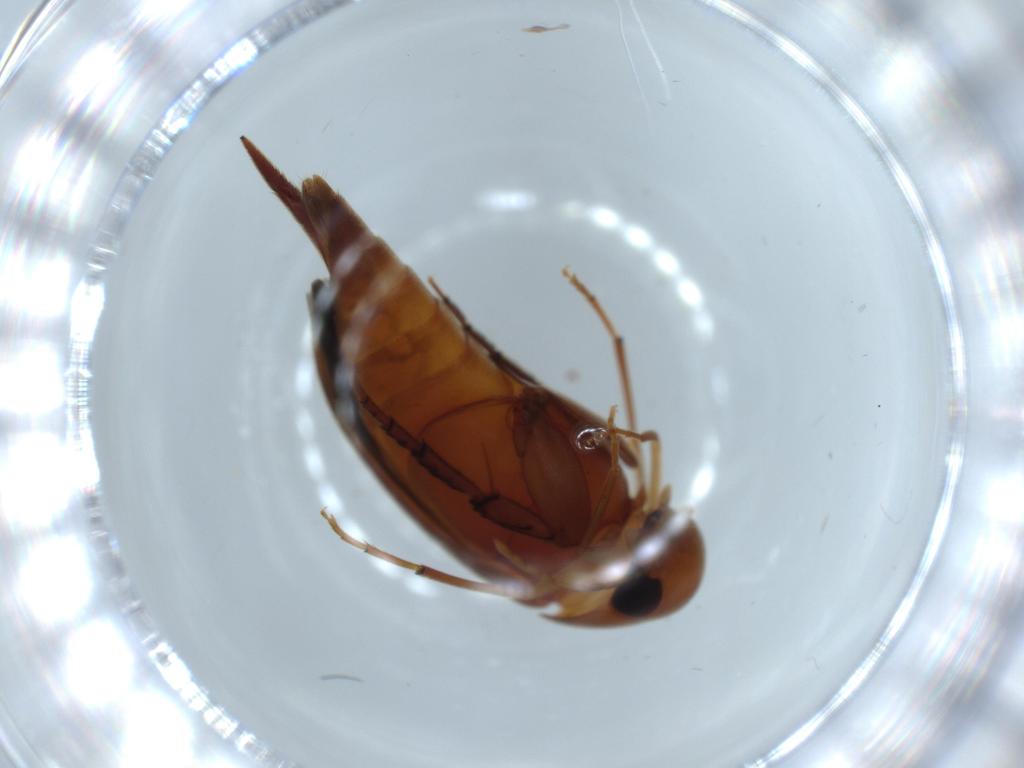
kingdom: Animalia
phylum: Arthropoda
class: Insecta
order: Coleoptera
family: Mordellidae
